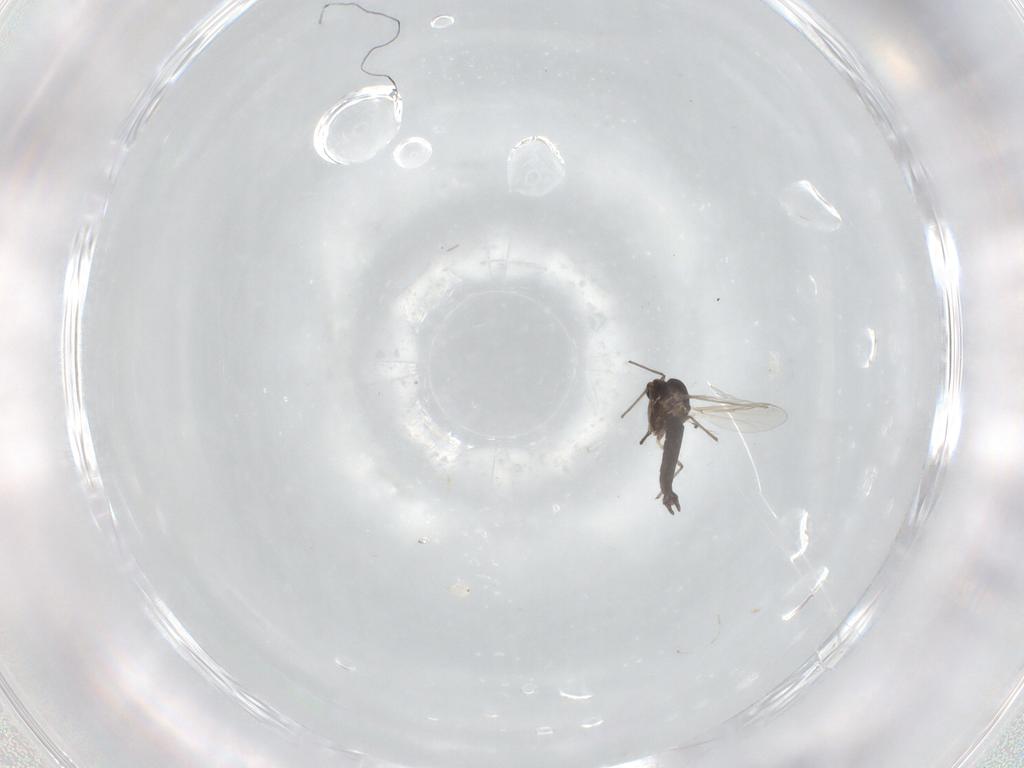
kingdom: Animalia
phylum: Arthropoda
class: Insecta
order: Diptera
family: Chironomidae
